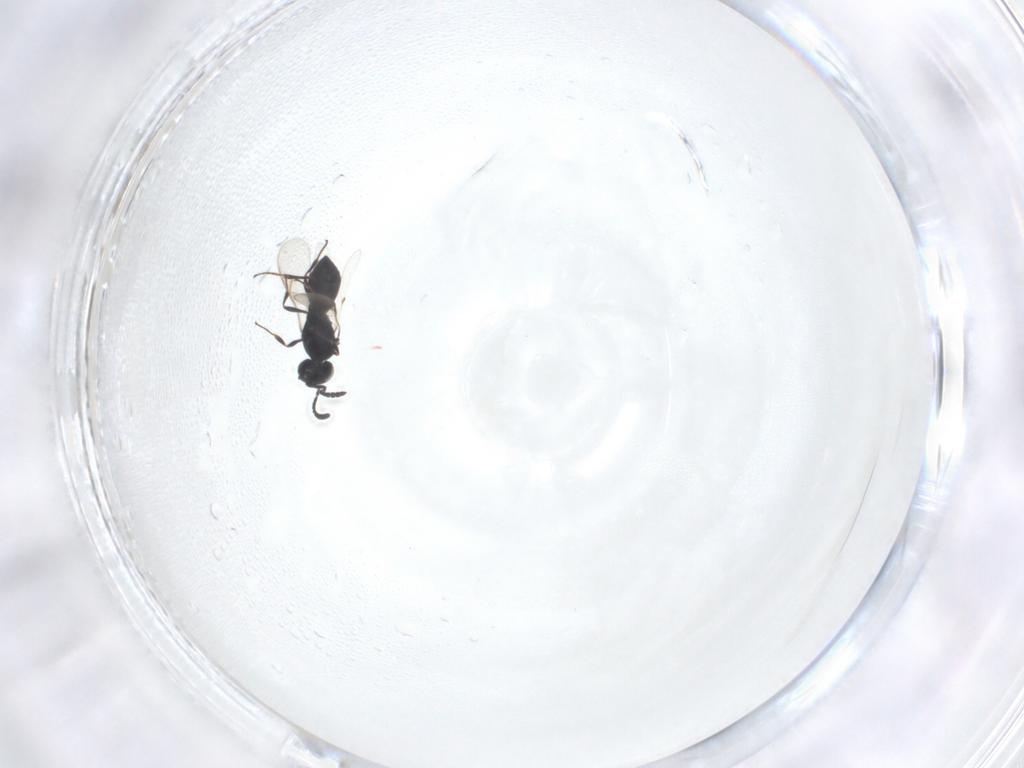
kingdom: Animalia
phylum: Arthropoda
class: Insecta
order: Hymenoptera
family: Scelionidae
